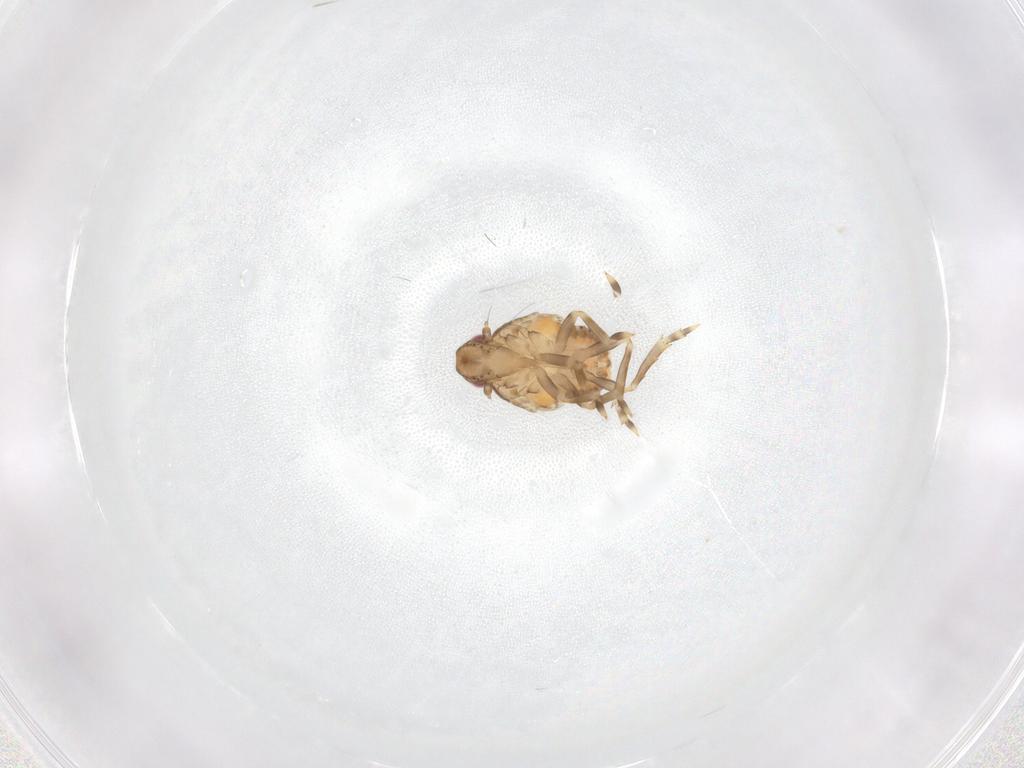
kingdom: Animalia
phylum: Arthropoda
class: Insecta
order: Hemiptera
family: Flatidae
